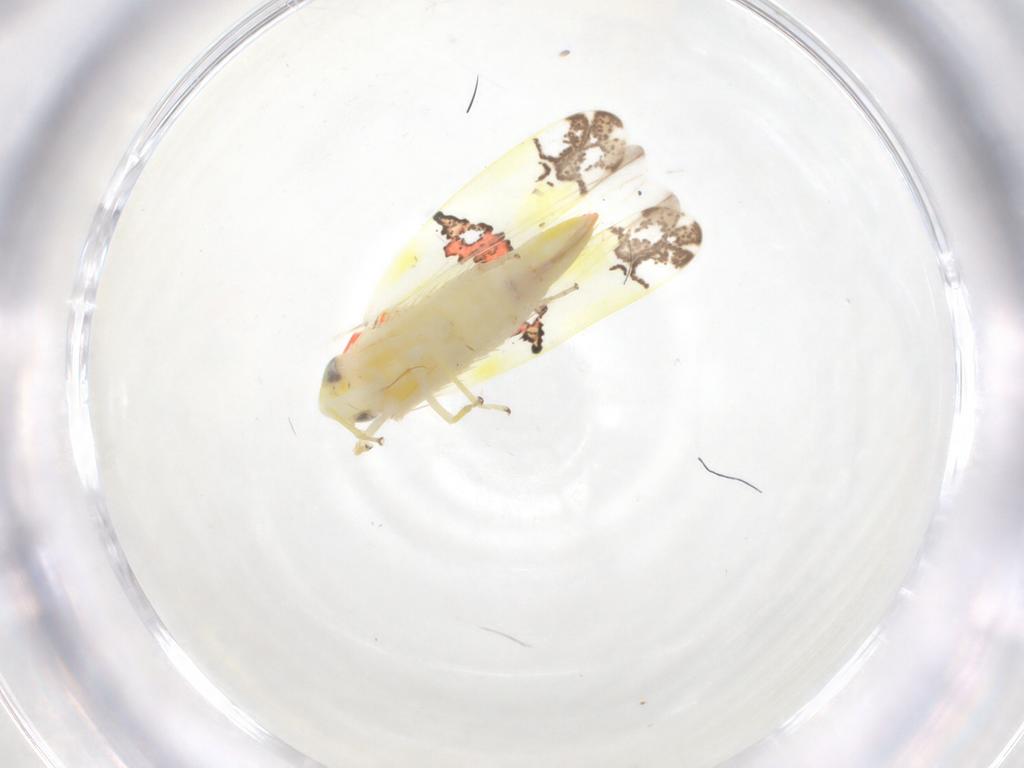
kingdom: Animalia
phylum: Arthropoda
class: Insecta
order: Hemiptera
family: Cicadellidae
